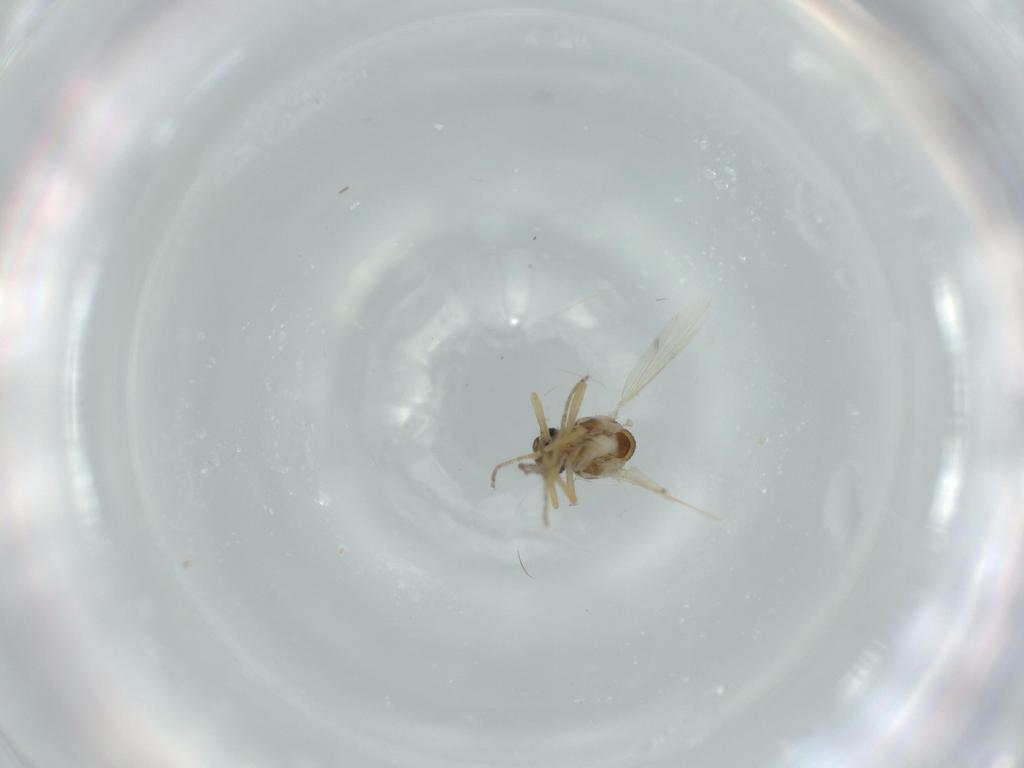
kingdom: Animalia
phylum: Arthropoda
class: Insecta
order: Diptera
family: Ceratopogonidae
